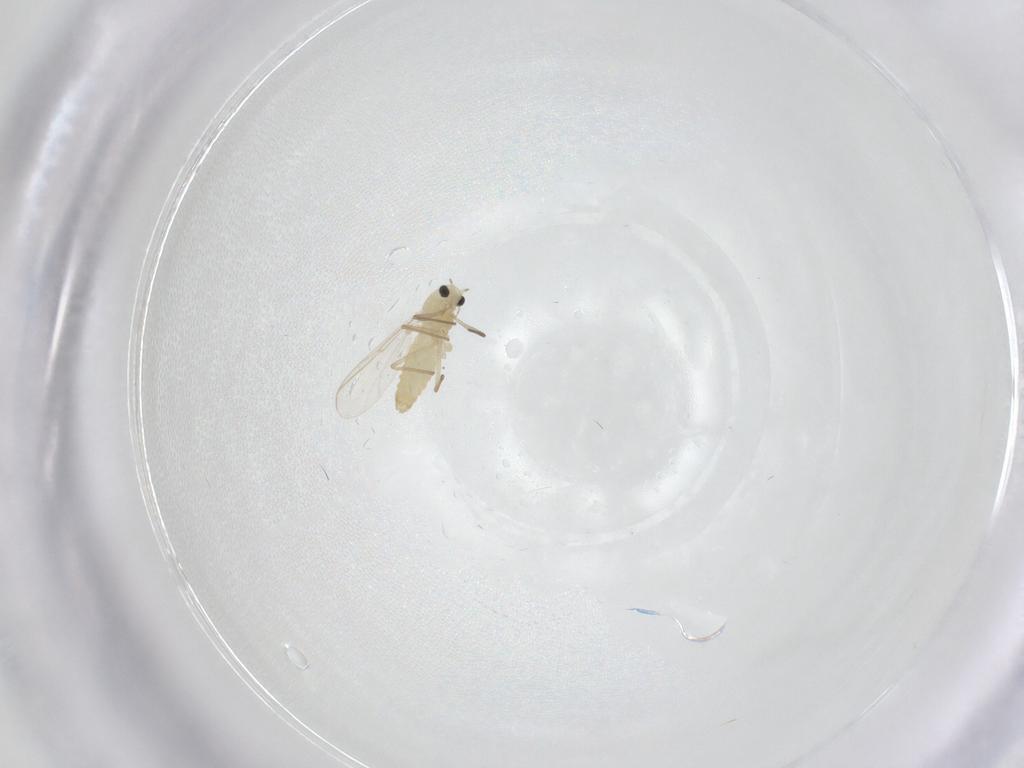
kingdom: Animalia
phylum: Arthropoda
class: Insecta
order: Diptera
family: Chironomidae
